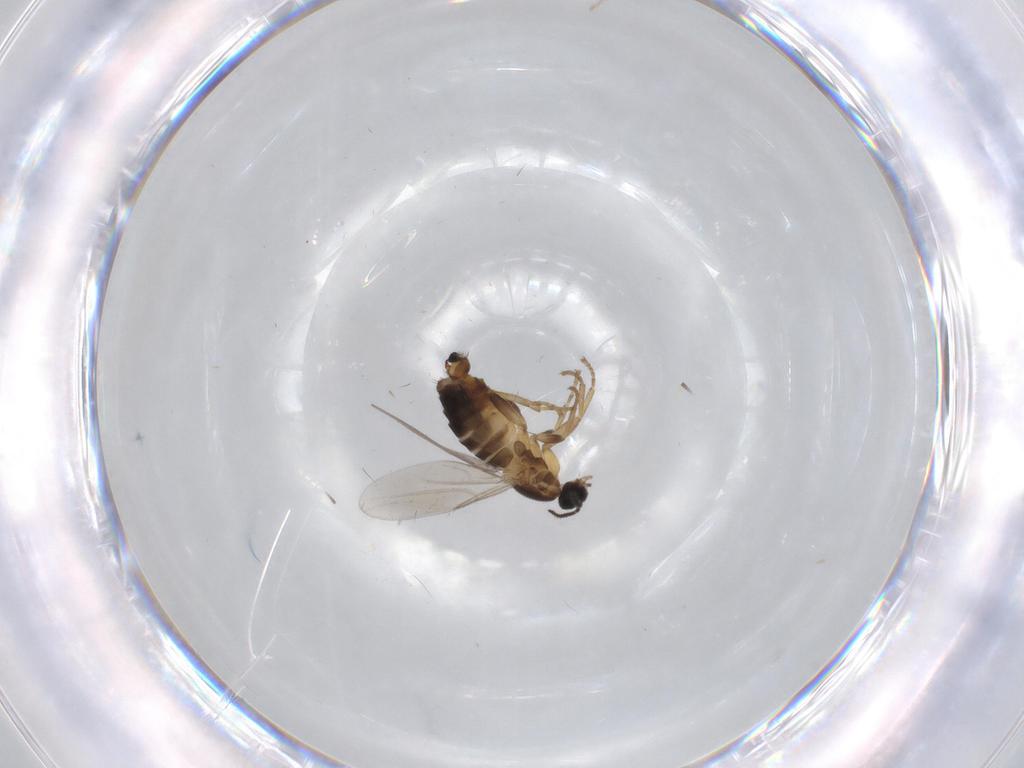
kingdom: Animalia
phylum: Arthropoda
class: Insecta
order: Diptera
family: Scatopsidae
